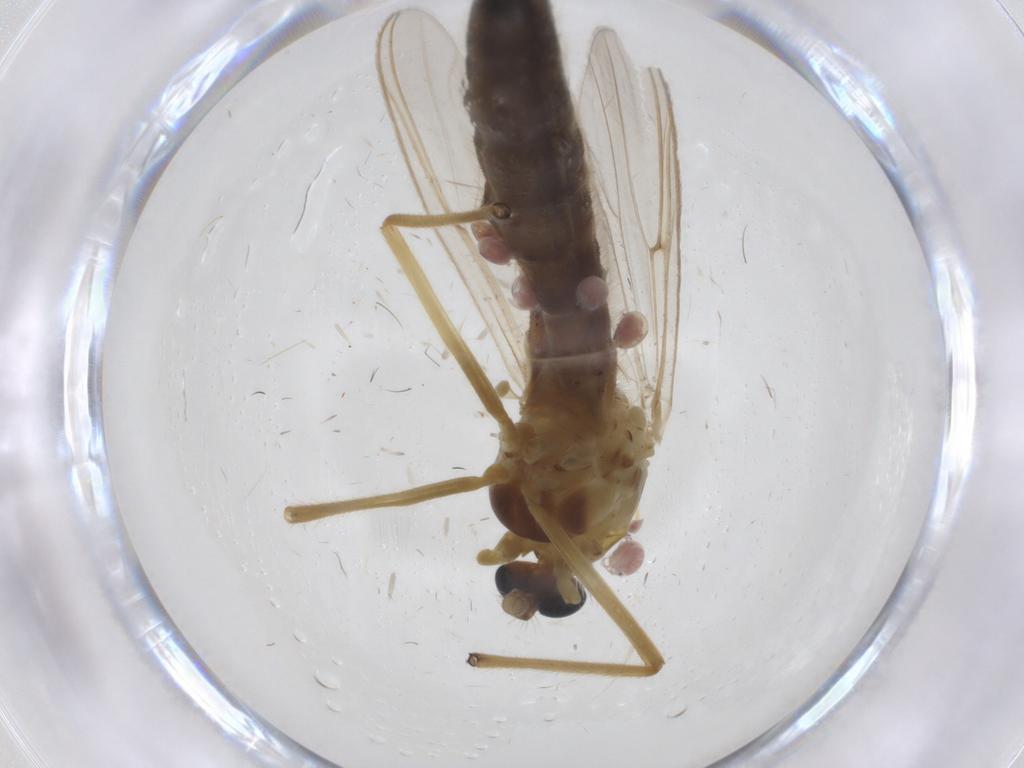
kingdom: Animalia
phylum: Arthropoda
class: Insecta
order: Diptera
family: Chironomidae
